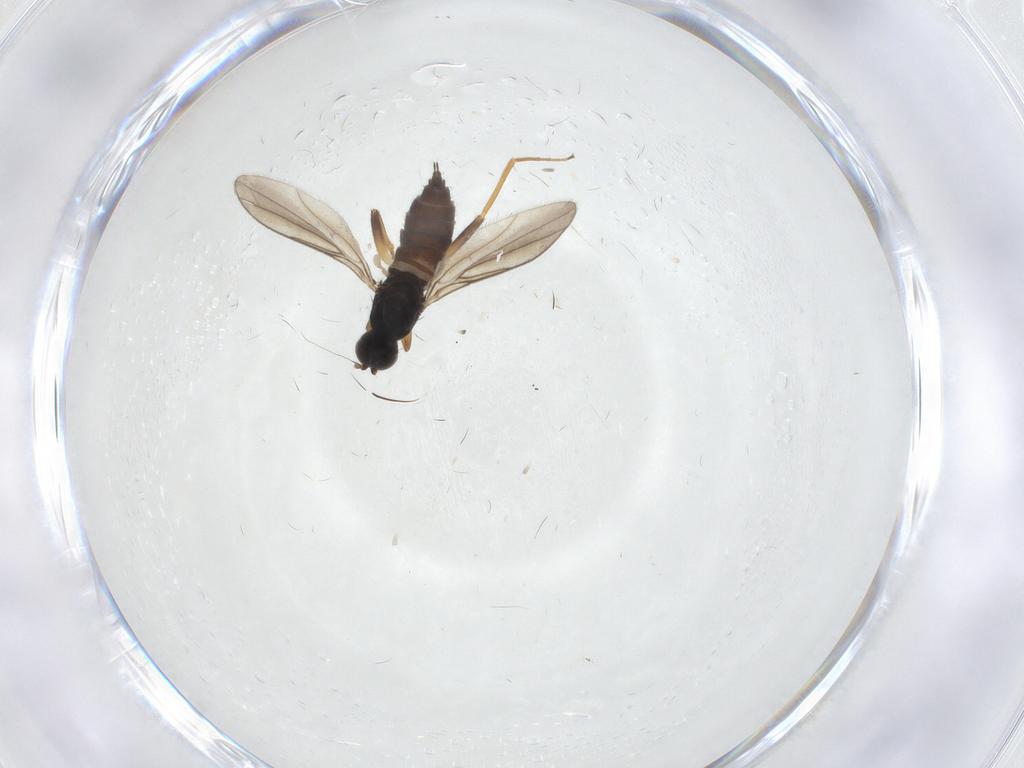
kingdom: Animalia
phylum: Arthropoda
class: Insecta
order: Diptera
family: Hybotidae
